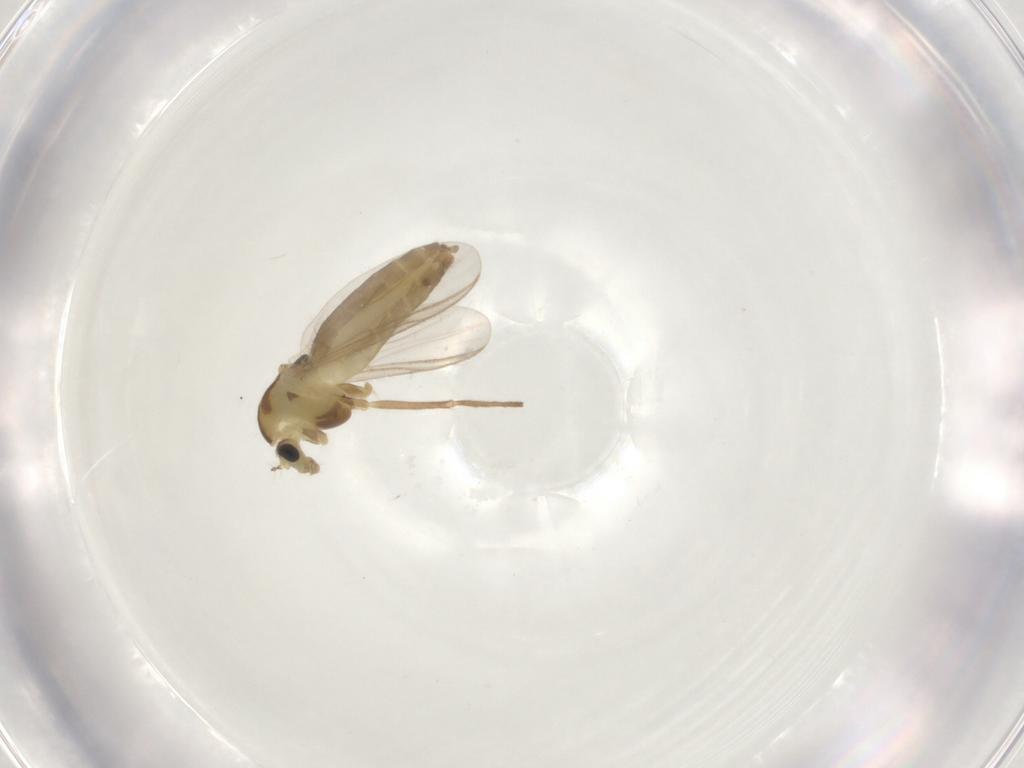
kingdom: Animalia
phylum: Arthropoda
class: Insecta
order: Diptera
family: Chironomidae
